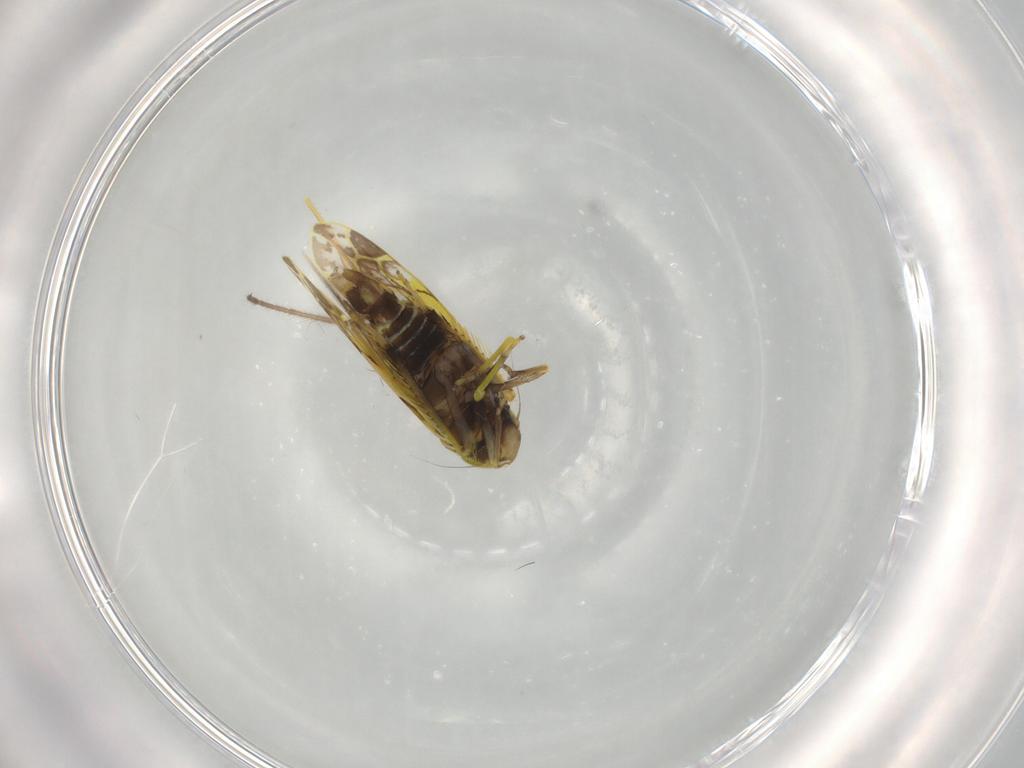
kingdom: Animalia
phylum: Arthropoda
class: Insecta
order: Hemiptera
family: Cicadellidae
